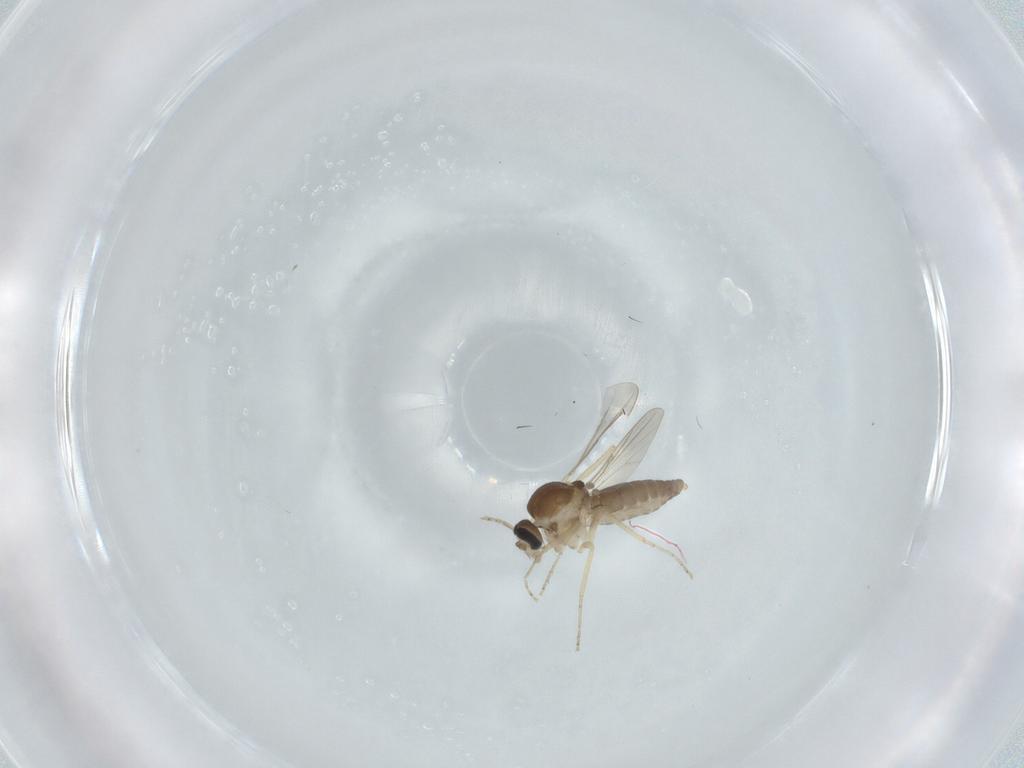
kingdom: Animalia
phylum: Arthropoda
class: Insecta
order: Diptera
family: Ceratopogonidae
